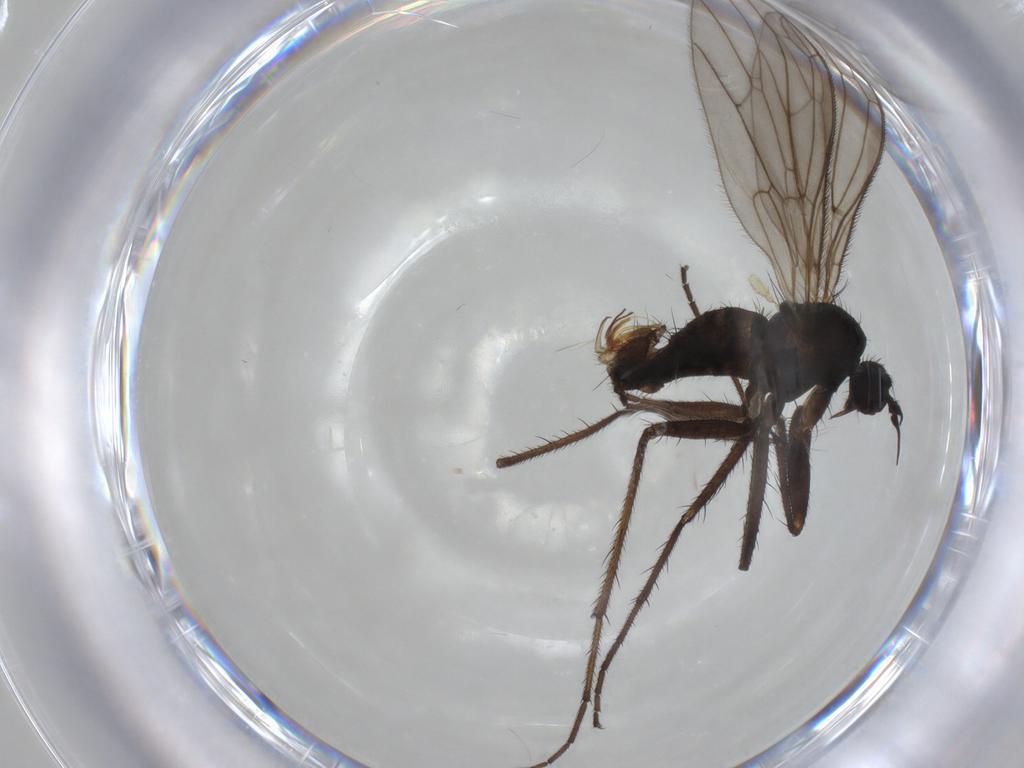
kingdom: Animalia
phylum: Arthropoda
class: Insecta
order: Diptera
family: Empididae
